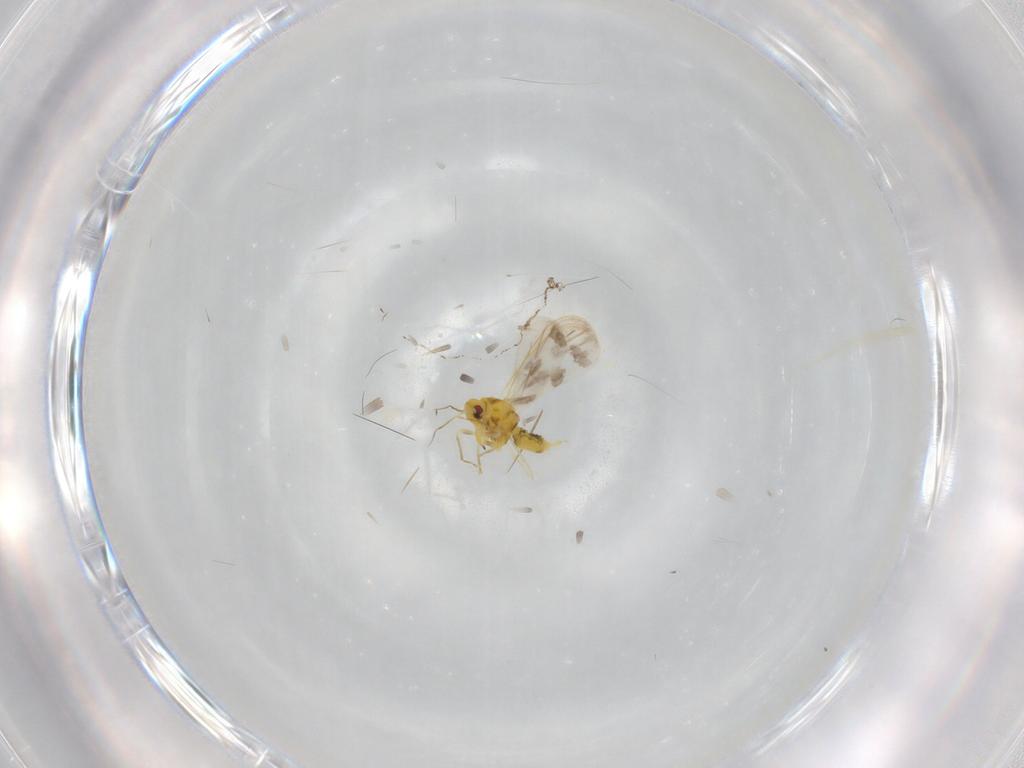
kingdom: Animalia
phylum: Arthropoda
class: Insecta
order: Hemiptera
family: Aleyrodidae
